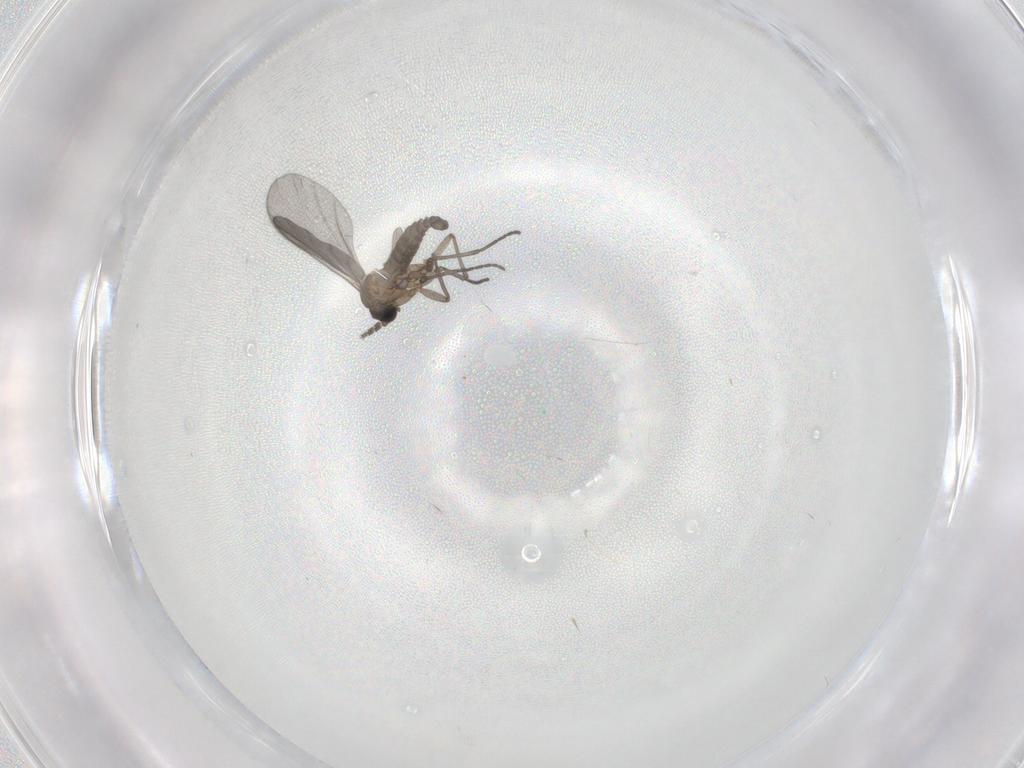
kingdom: Animalia
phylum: Arthropoda
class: Insecta
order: Diptera
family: Sciaridae
